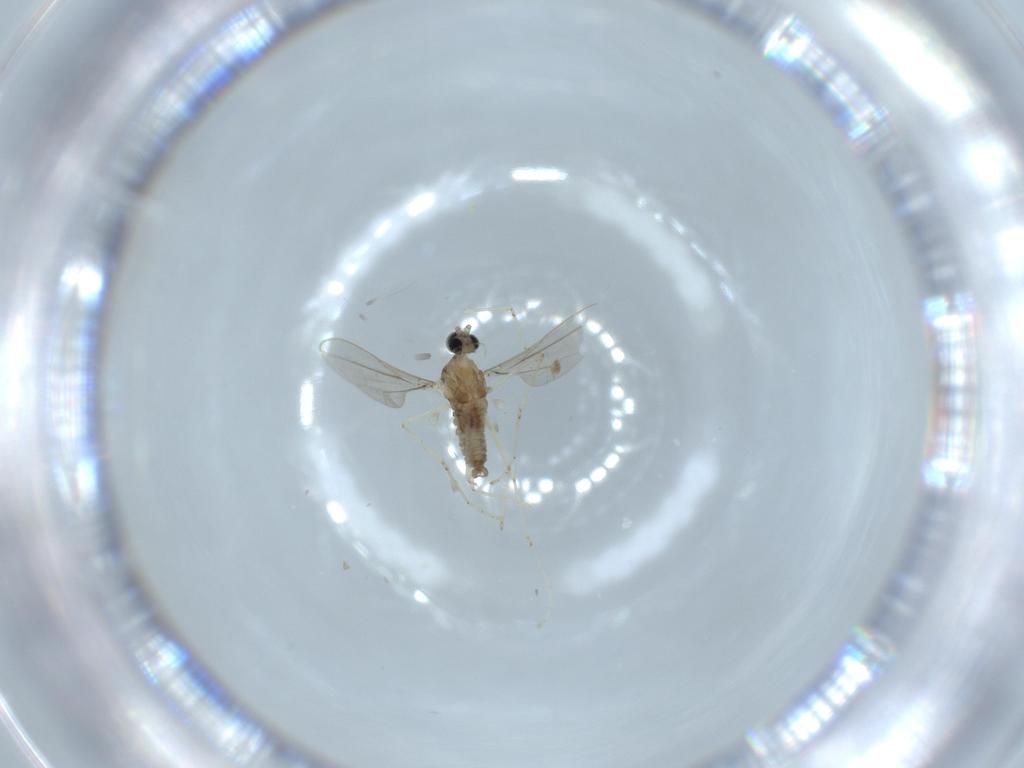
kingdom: Animalia
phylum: Arthropoda
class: Insecta
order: Diptera
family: Cecidomyiidae
